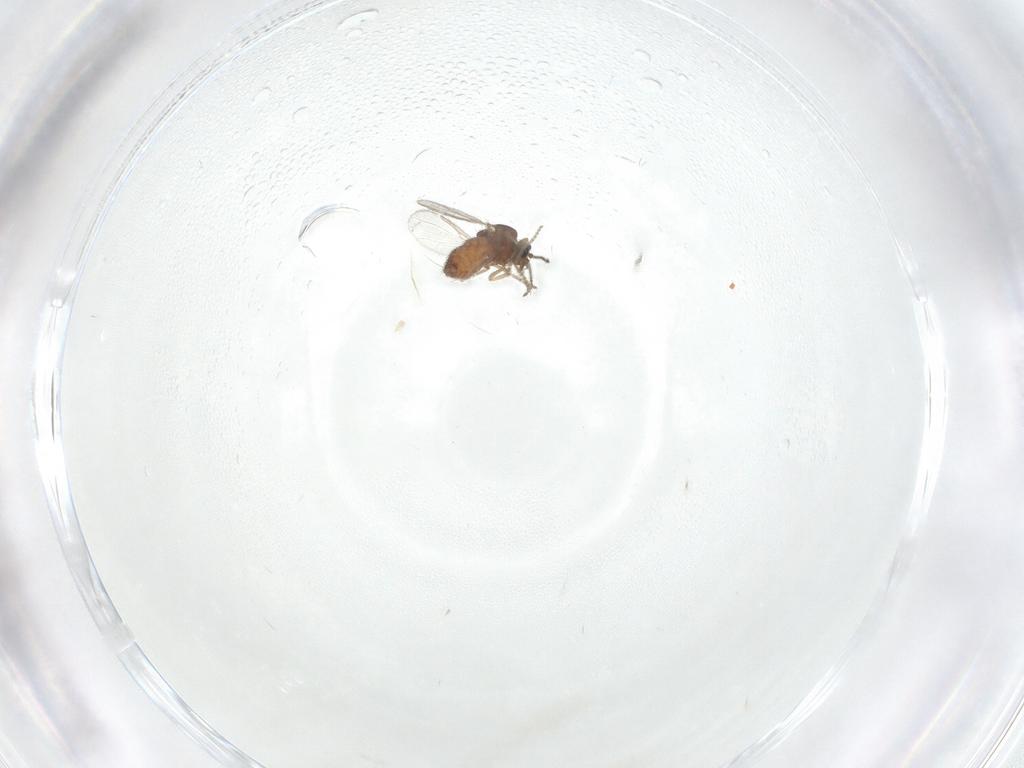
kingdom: Animalia
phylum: Arthropoda
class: Insecta
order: Diptera
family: Ceratopogonidae
